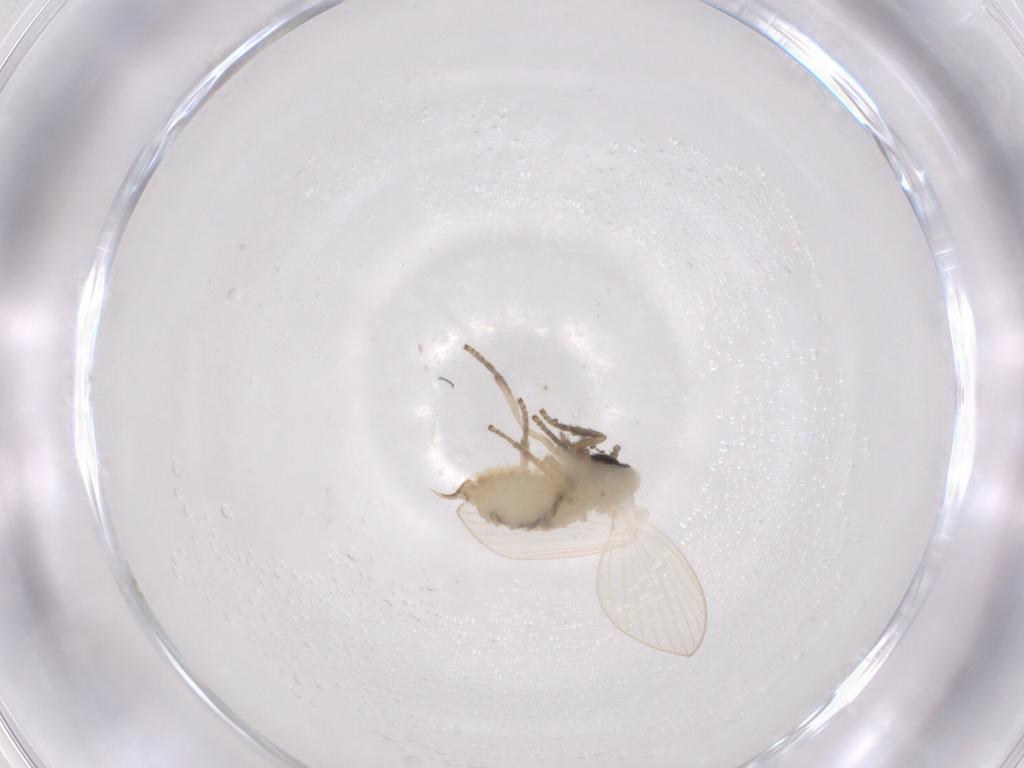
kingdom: Animalia
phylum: Arthropoda
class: Insecta
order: Diptera
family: Psychodidae
